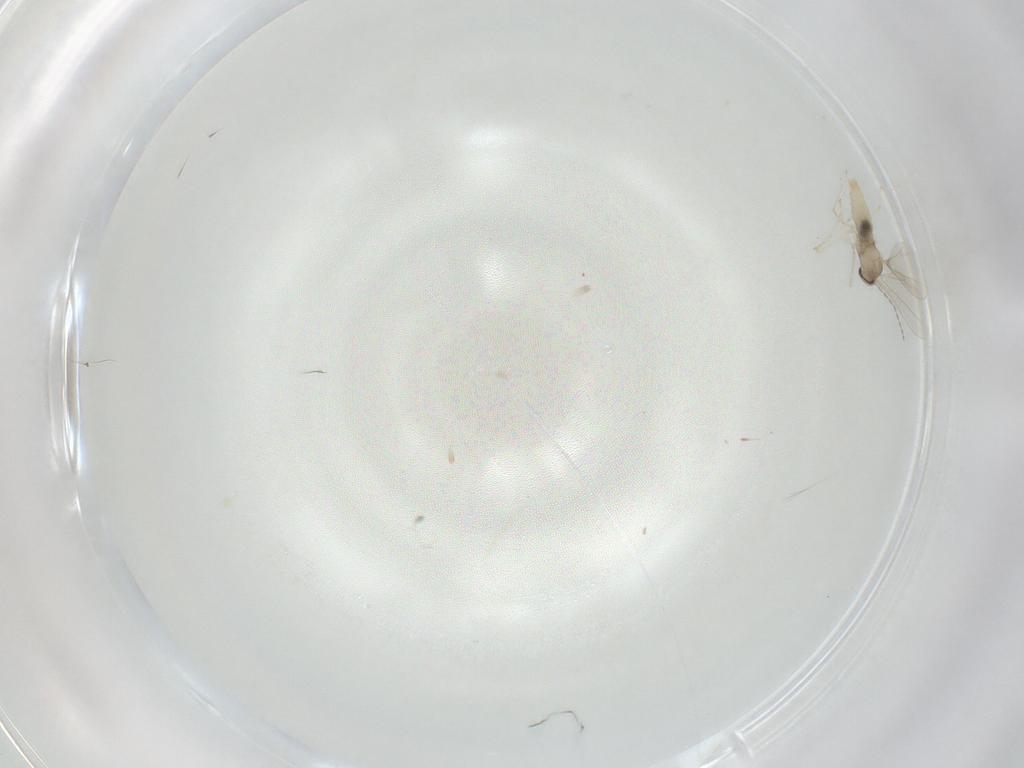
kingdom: Animalia
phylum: Arthropoda
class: Insecta
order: Diptera
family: Cecidomyiidae
